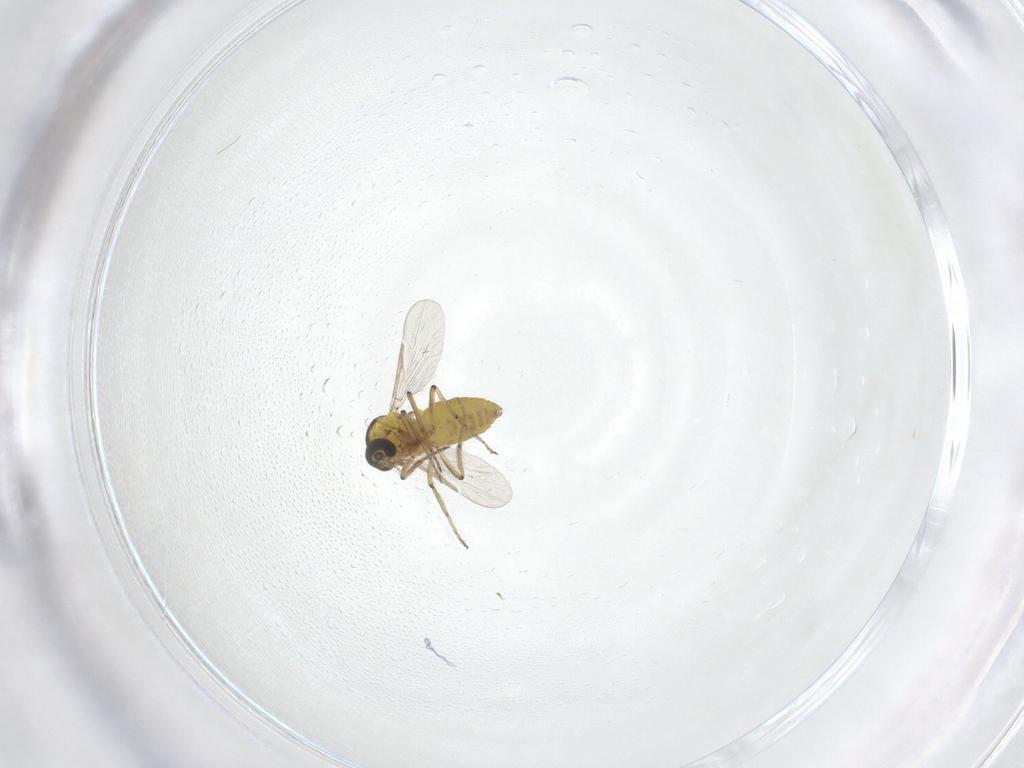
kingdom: Animalia
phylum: Arthropoda
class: Insecta
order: Diptera
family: Ceratopogonidae
